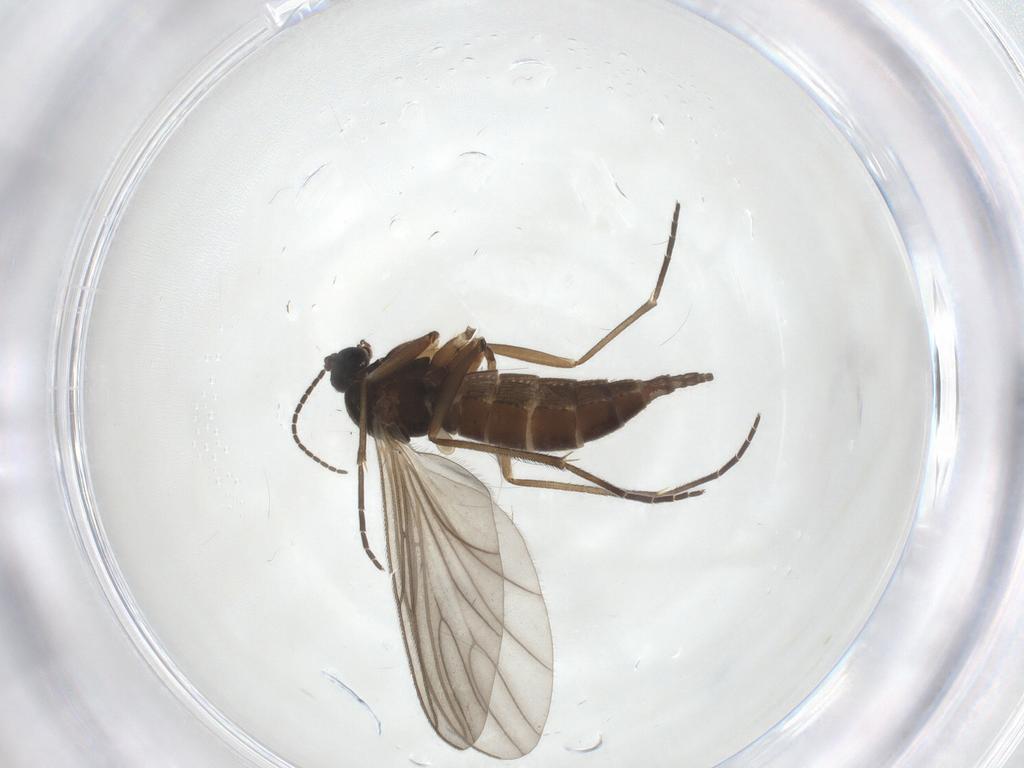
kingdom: Animalia
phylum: Arthropoda
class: Insecta
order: Diptera
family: Sciaridae
